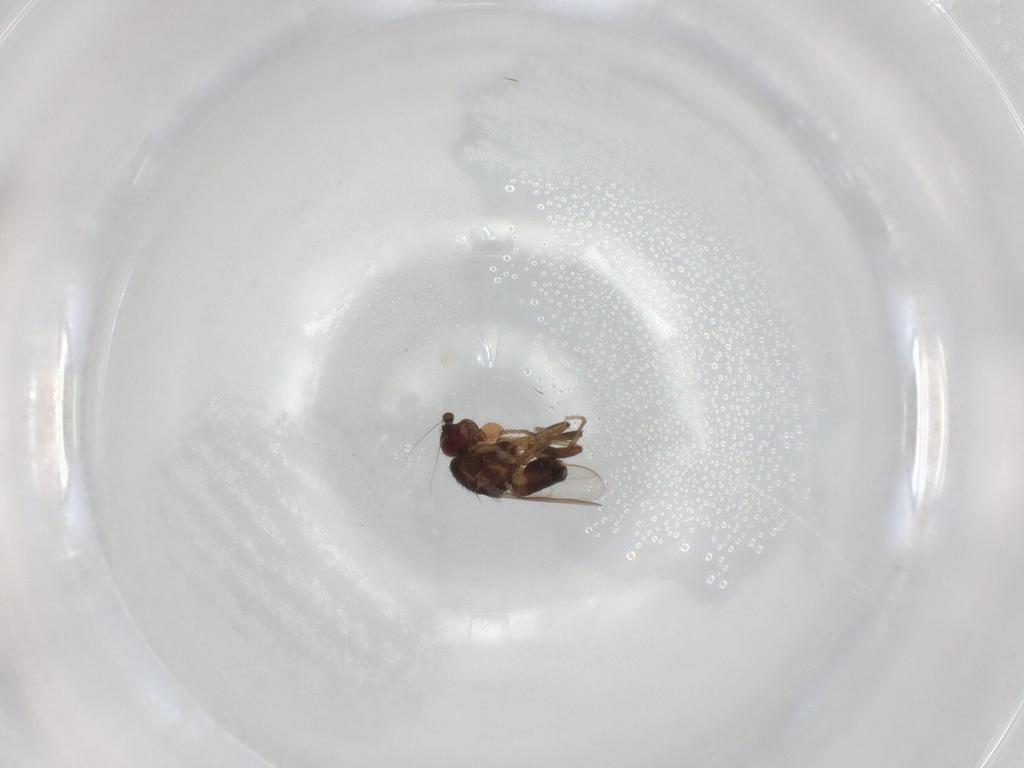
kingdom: Animalia
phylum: Arthropoda
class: Insecta
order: Diptera
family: Sphaeroceridae
